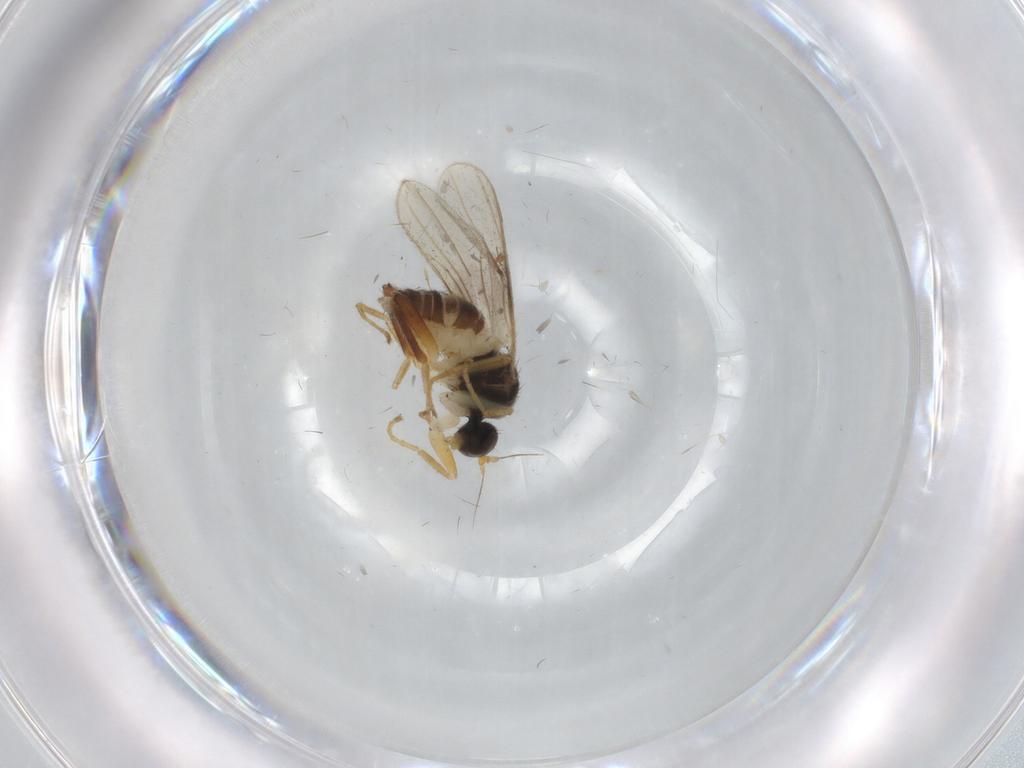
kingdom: Animalia
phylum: Arthropoda
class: Insecta
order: Diptera
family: Hybotidae
